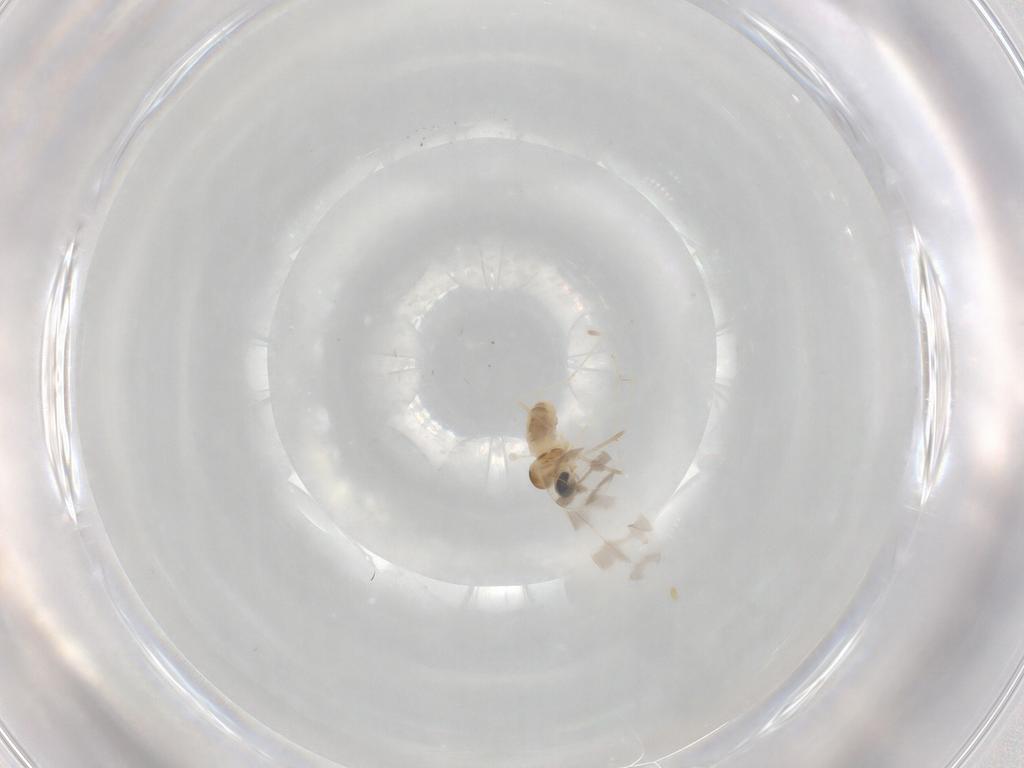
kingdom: Animalia
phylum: Arthropoda
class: Insecta
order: Diptera
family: Cecidomyiidae
